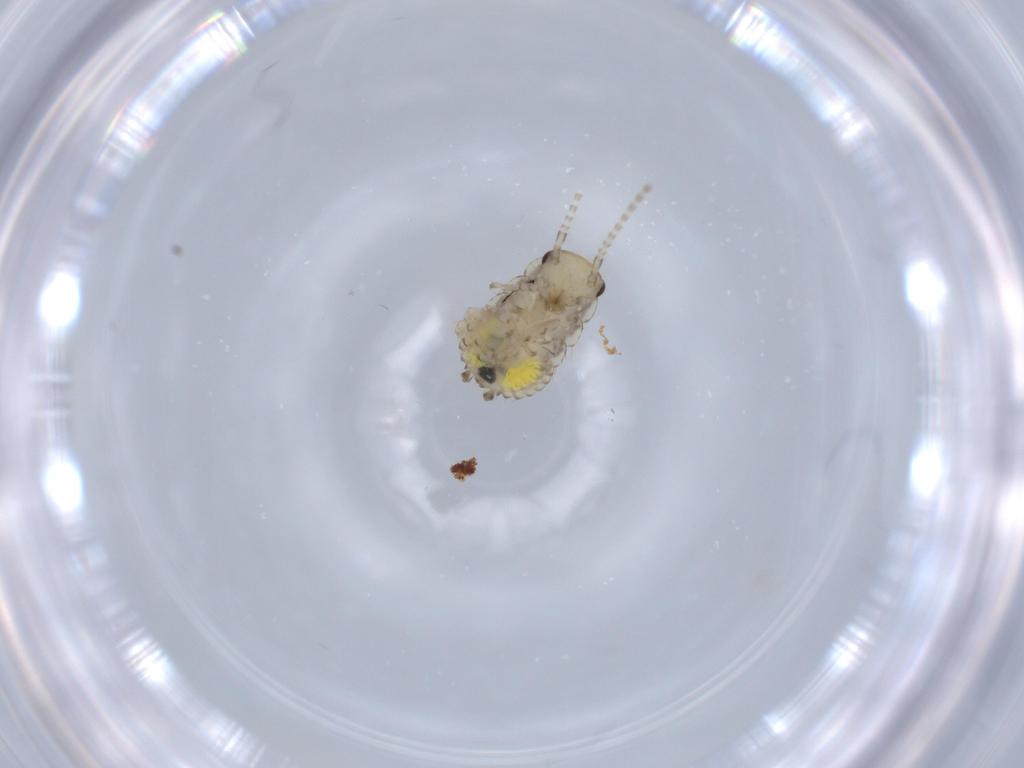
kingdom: Animalia
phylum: Arthropoda
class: Insecta
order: Blattodea
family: Ectobiidae
